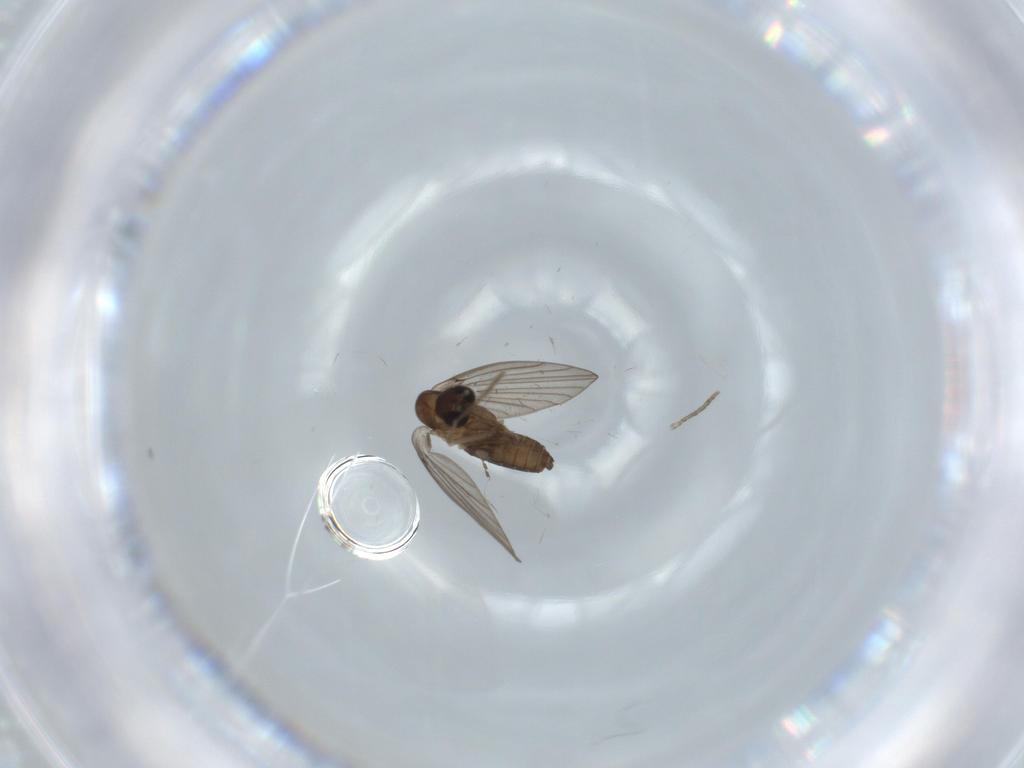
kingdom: Animalia
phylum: Arthropoda
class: Insecta
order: Diptera
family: Psychodidae
